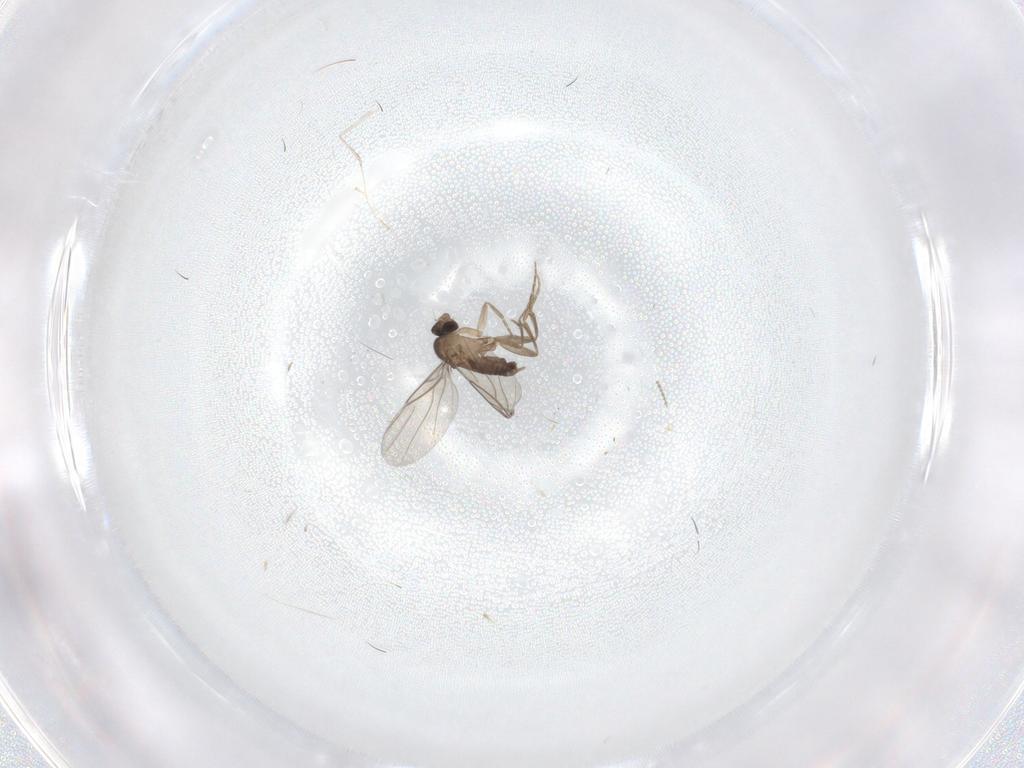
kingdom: Animalia
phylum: Arthropoda
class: Insecta
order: Diptera
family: Phoridae
